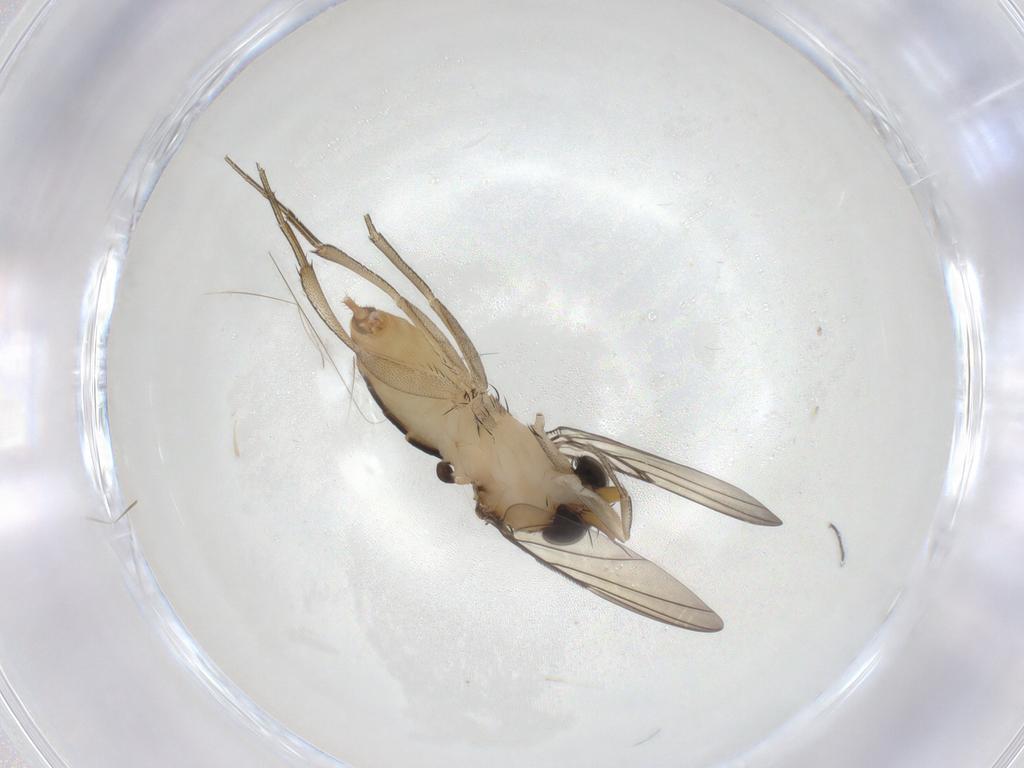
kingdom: Animalia
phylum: Arthropoda
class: Insecta
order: Diptera
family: Phoridae
